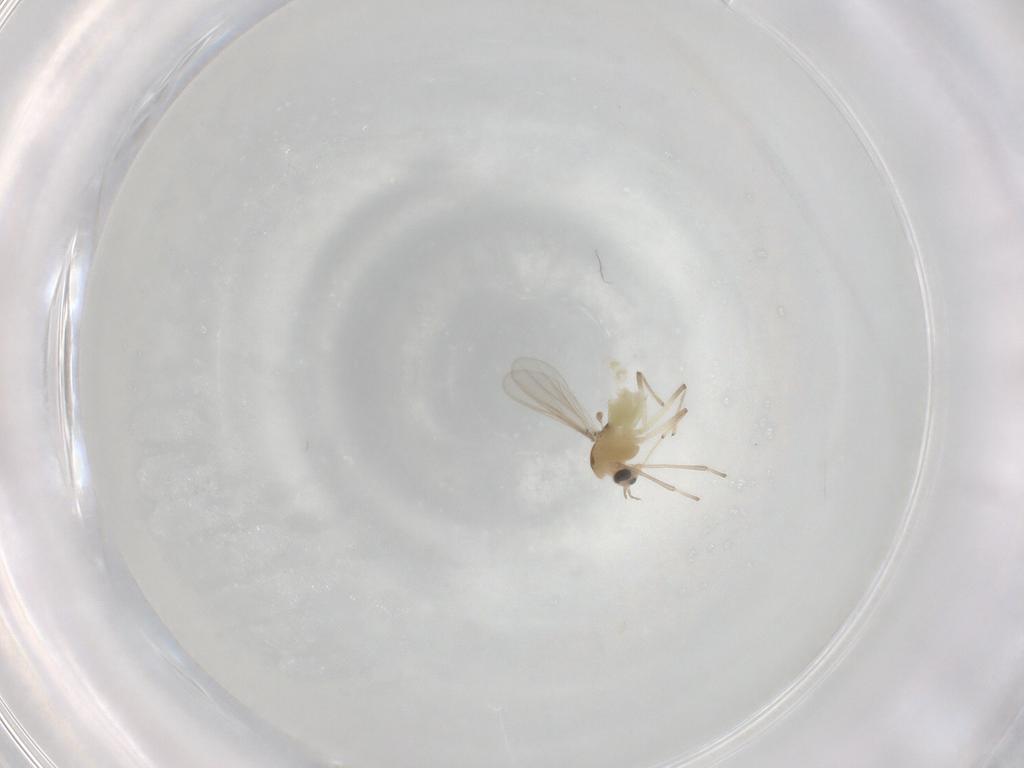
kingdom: Animalia
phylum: Arthropoda
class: Insecta
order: Diptera
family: Chironomidae
